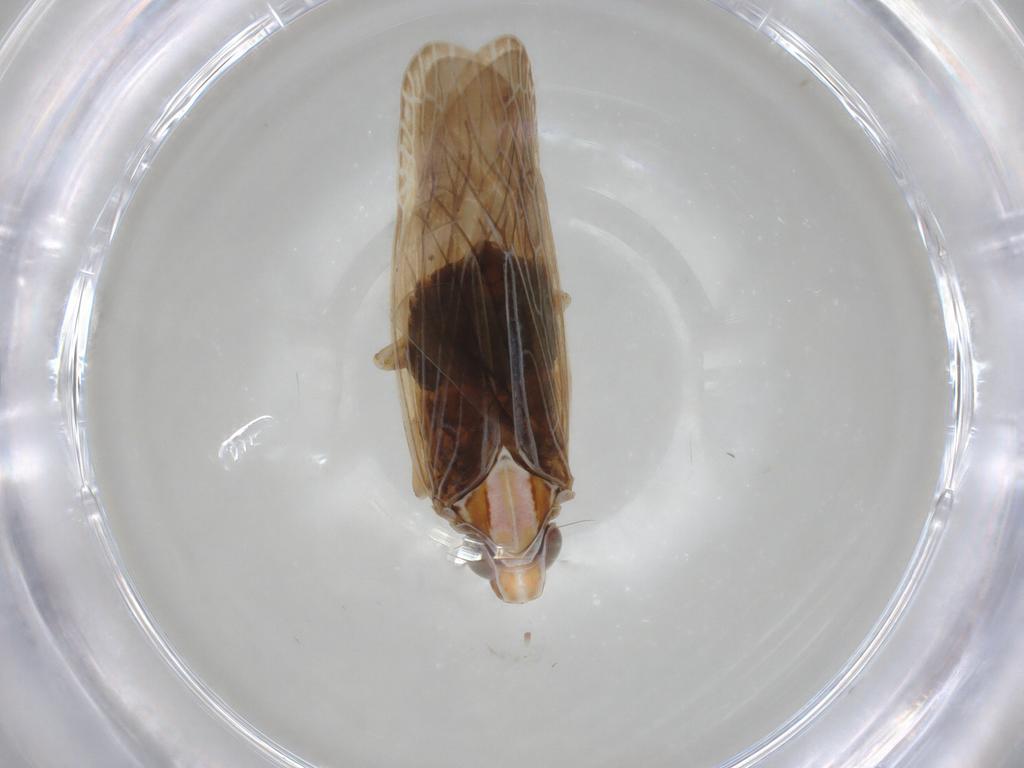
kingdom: Animalia
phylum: Arthropoda
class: Insecta
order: Hemiptera
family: Achilidae
